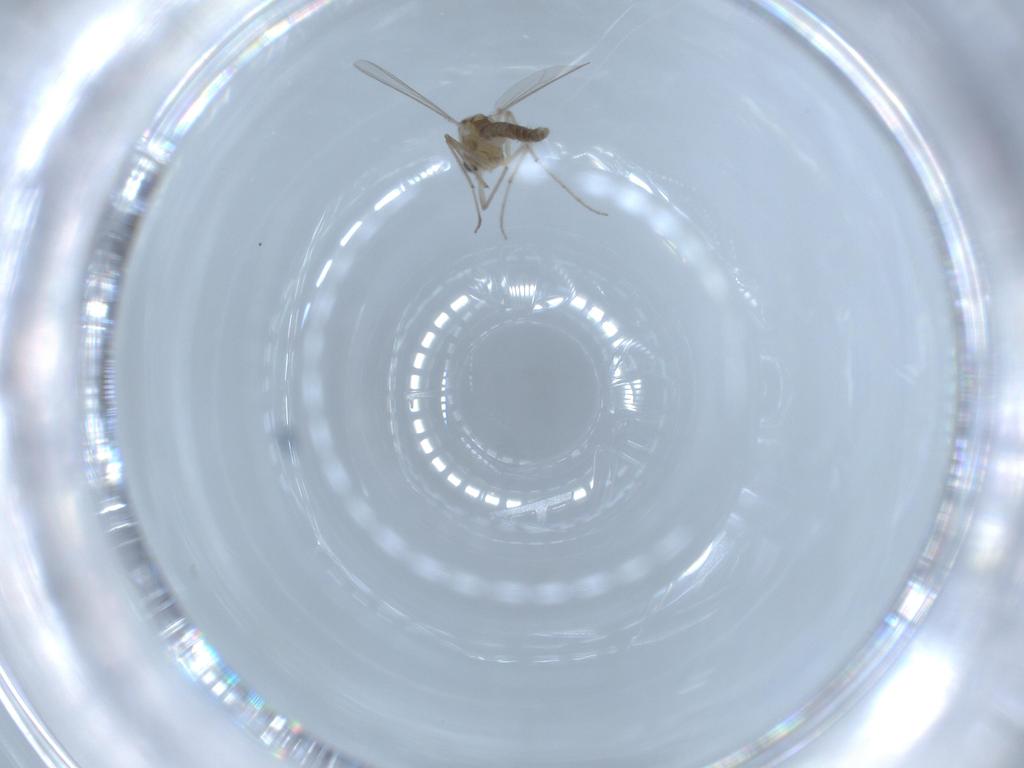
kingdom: Animalia
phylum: Arthropoda
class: Insecta
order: Diptera
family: Chironomidae
